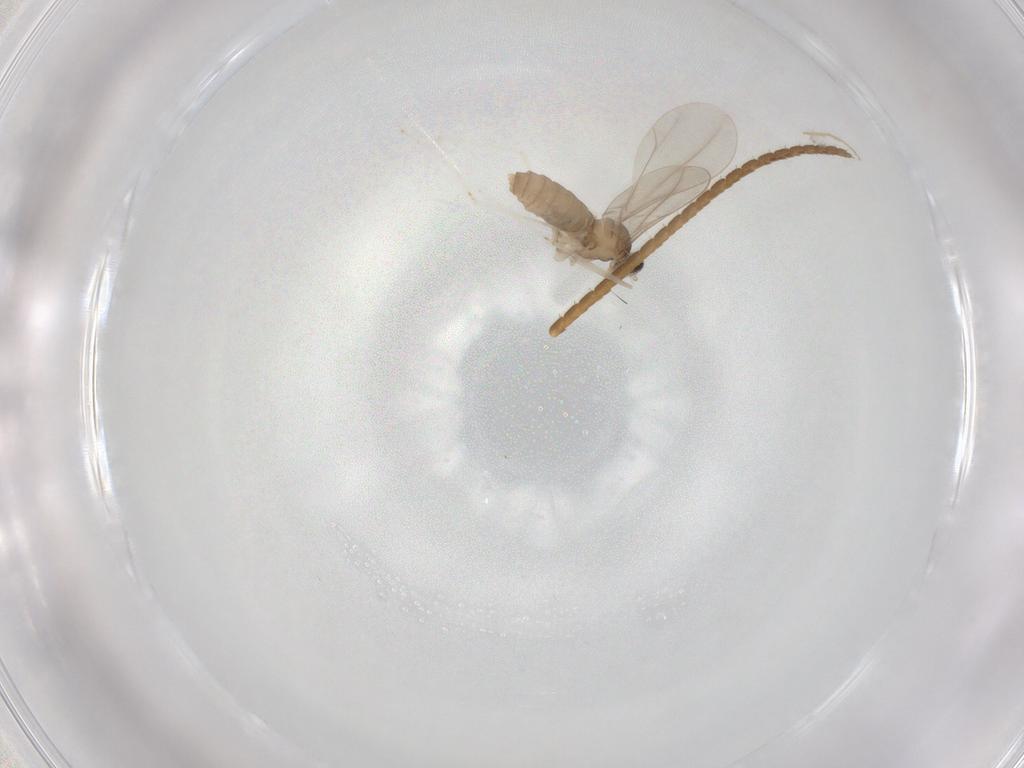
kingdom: Animalia
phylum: Arthropoda
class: Insecta
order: Diptera
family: Cecidomyiidae
